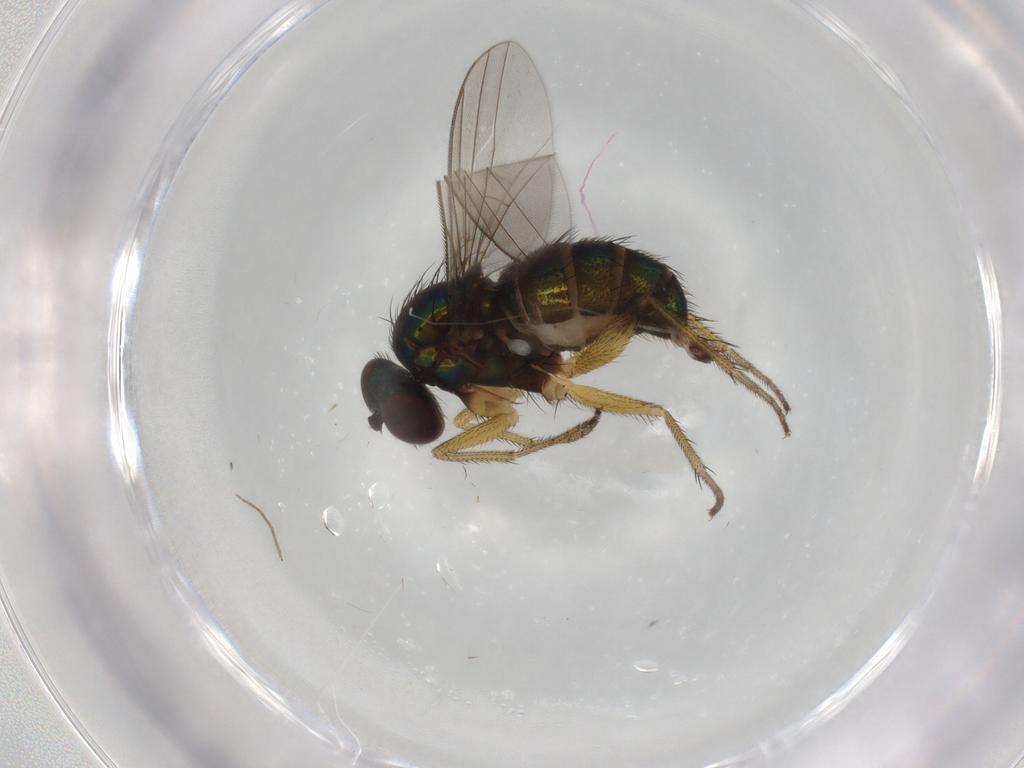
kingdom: Animalia
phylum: Arthropoda
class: Insecta
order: Diptera
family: Dolichopodidae
